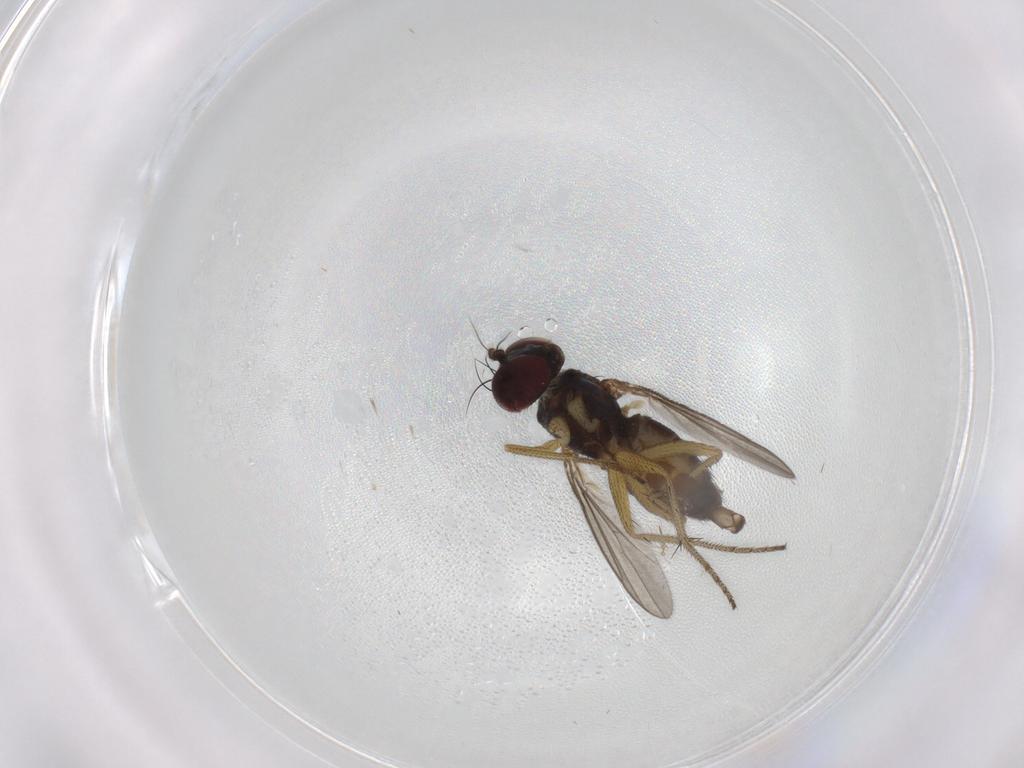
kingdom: Animalia
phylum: Arthropoda
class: Insecta
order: Diptera
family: Dolichopodidae
